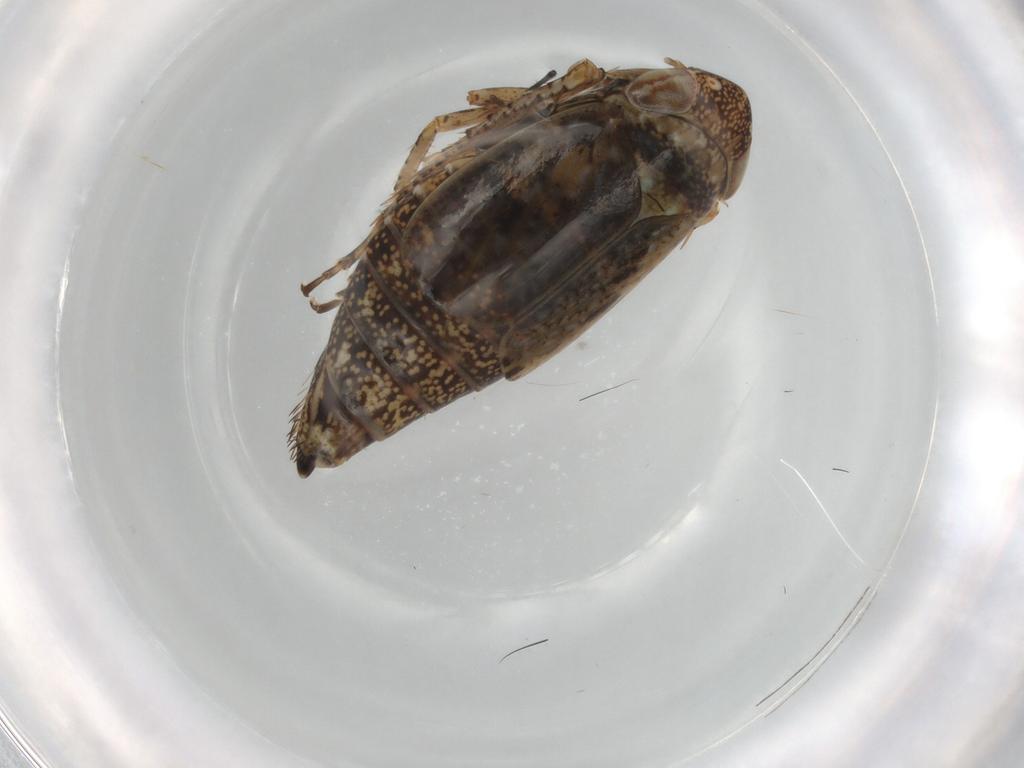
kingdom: Animalia
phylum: Arthropoda
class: Insecta
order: Hemiptera
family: Cicadellidae
